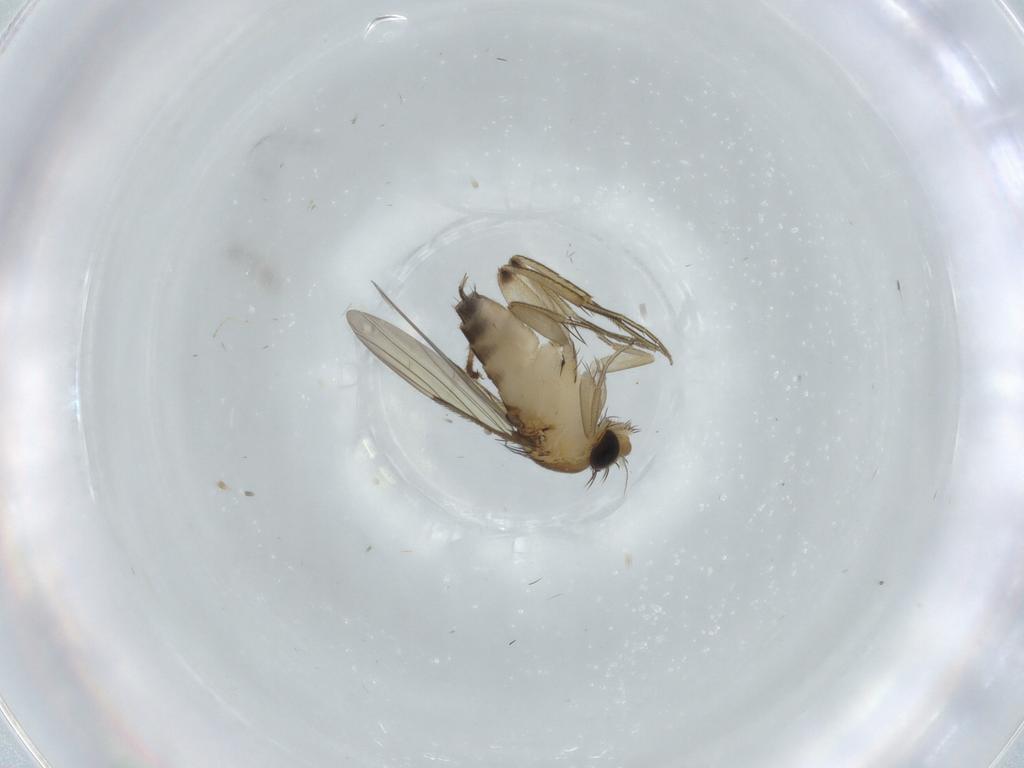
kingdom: Animalia
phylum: Arthropoda
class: Insecta
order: Diptera
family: Phoridae
